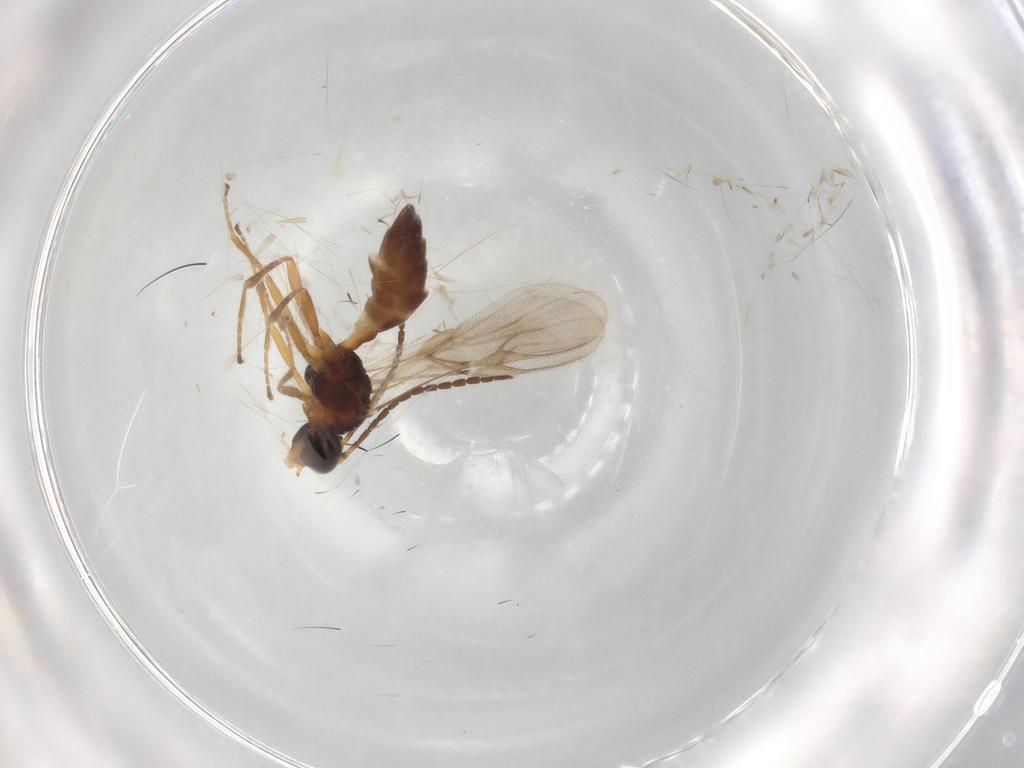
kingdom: Animalia
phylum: Arthropoda
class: Insecta
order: Hymenoptera
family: Braconidae
